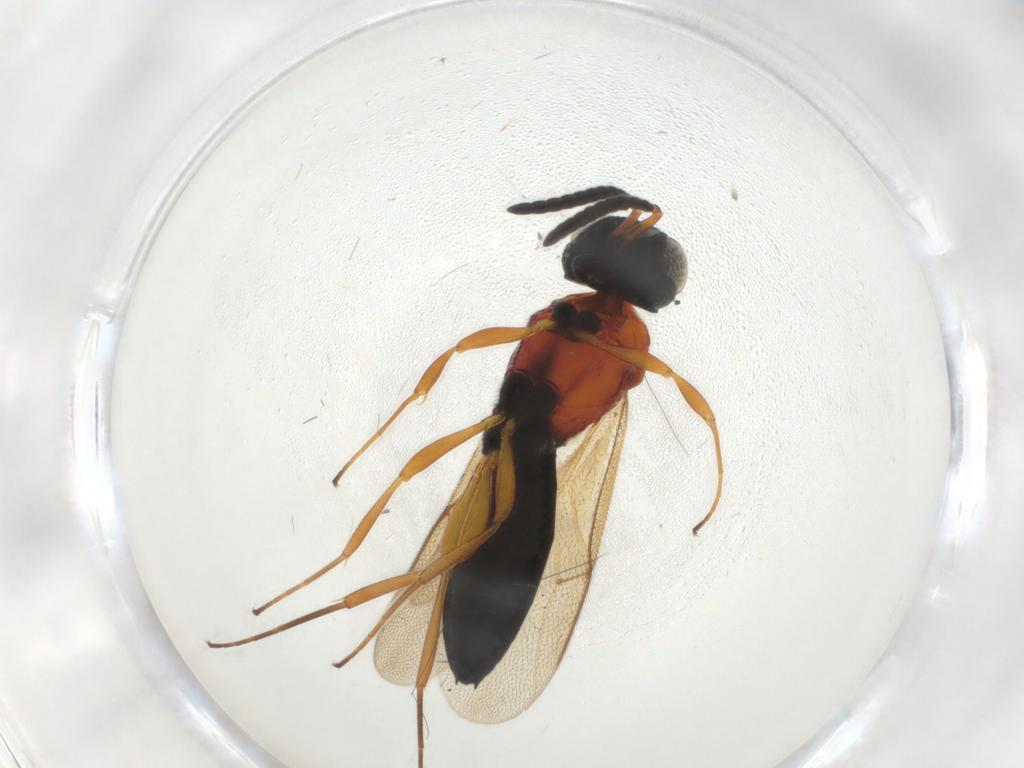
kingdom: Animalia
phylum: Arthropoda
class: Insecta
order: Hymenoptera
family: Scelionidae
